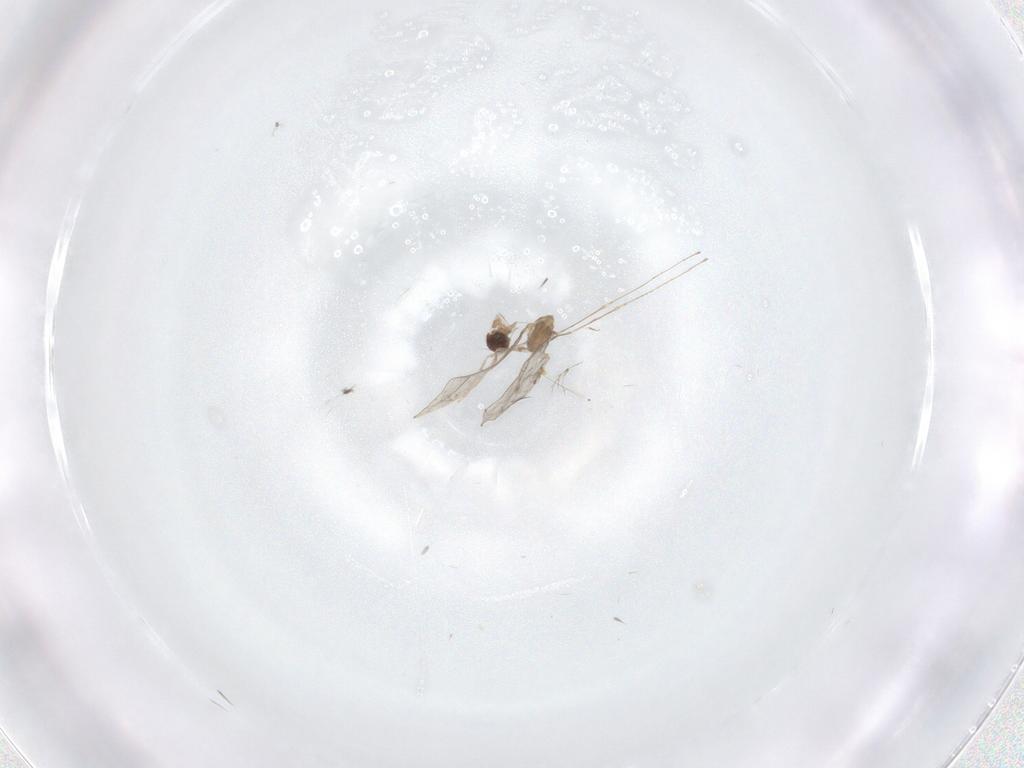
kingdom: Animalia
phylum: Arthropoda
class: Insecta
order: Diptera
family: Cecidomyiidae
